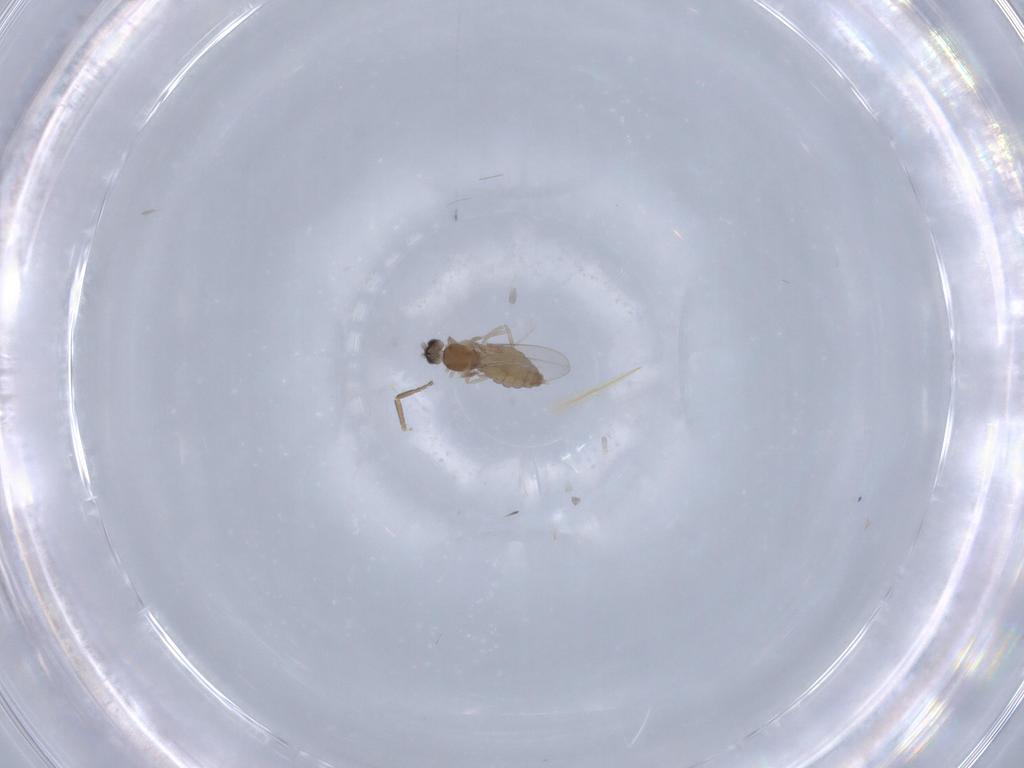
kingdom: Animalia
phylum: Arthropoda
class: Insecta
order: Diptera
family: Cecidomyiidae
